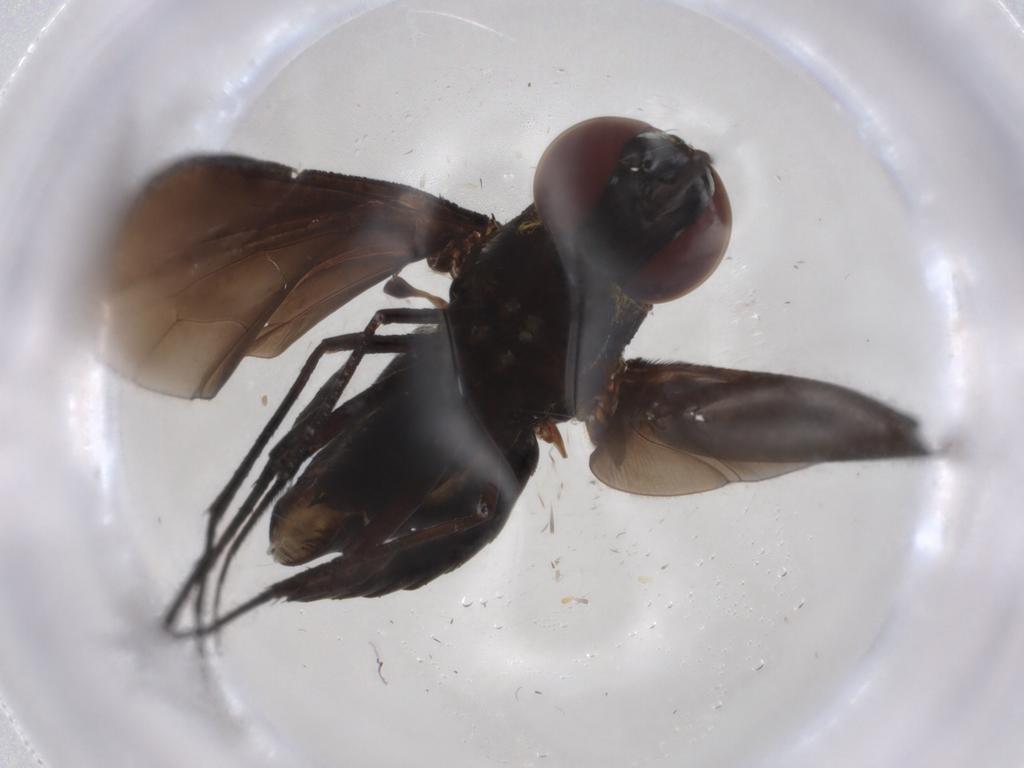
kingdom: Animalia
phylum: Arthropoda
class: Insecta
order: Diptera
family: Bombyliidae
